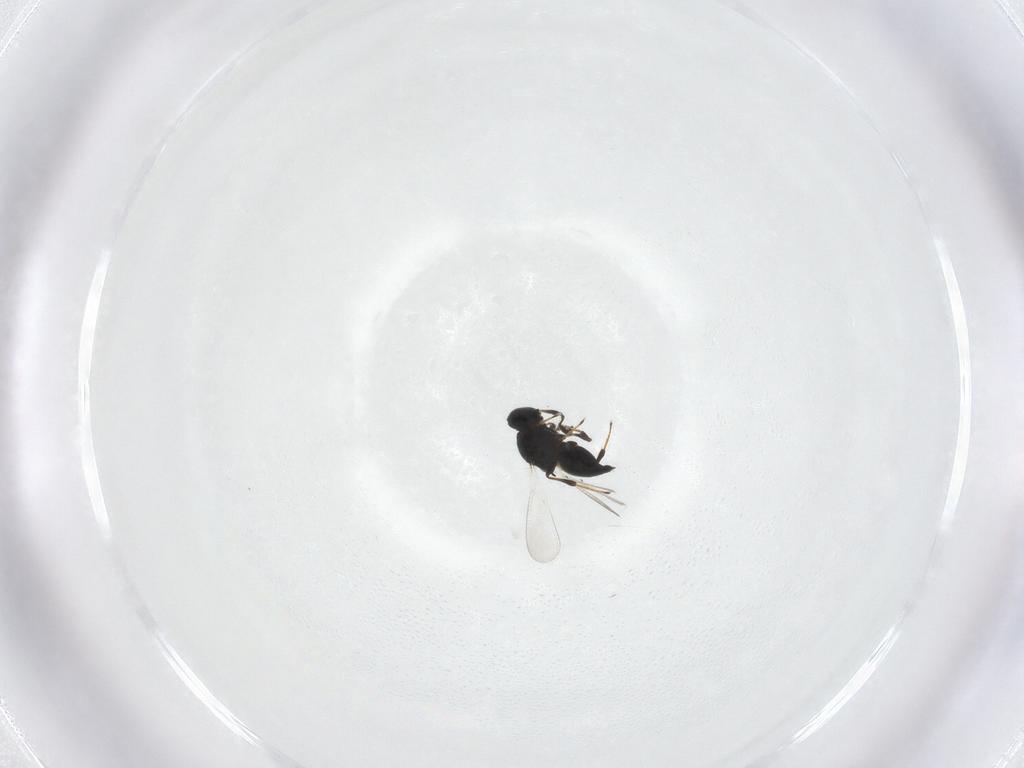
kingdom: Animalia
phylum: Arthropoda
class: Insecta
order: Hymenoptera
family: Platygastridae
